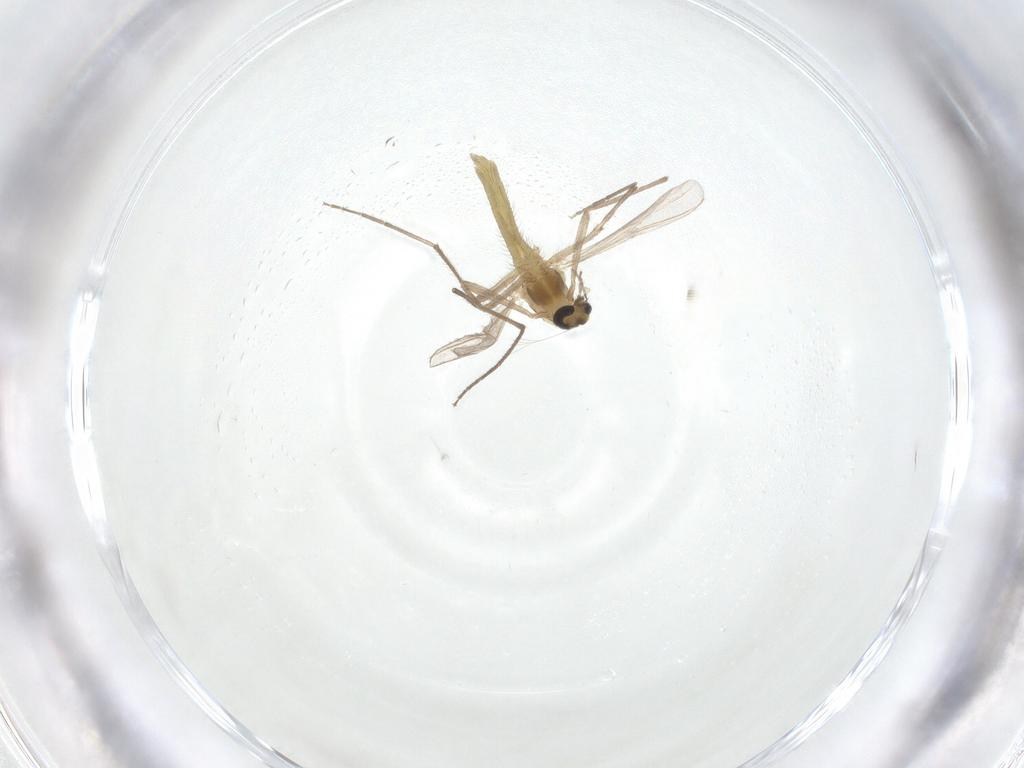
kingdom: Animalia
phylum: Arthropoda
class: Insecta
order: Diptera
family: Chironomidae
